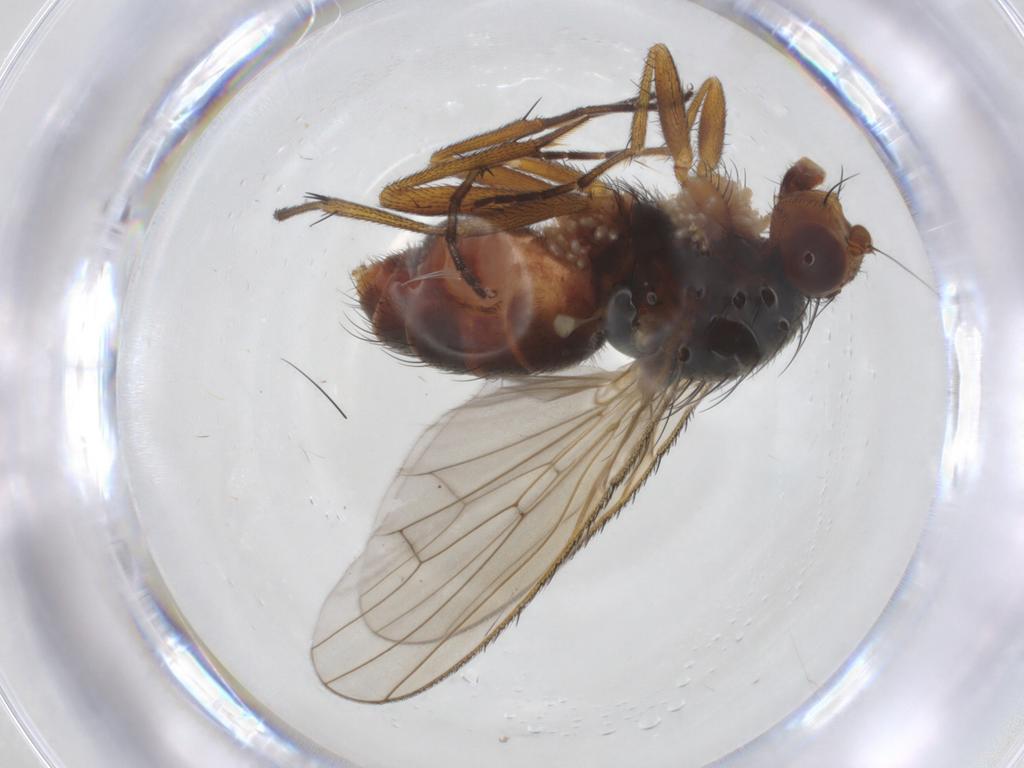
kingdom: Animalia
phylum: Arthropoda
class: Insecta
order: Diptera
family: Heleomyzidae
